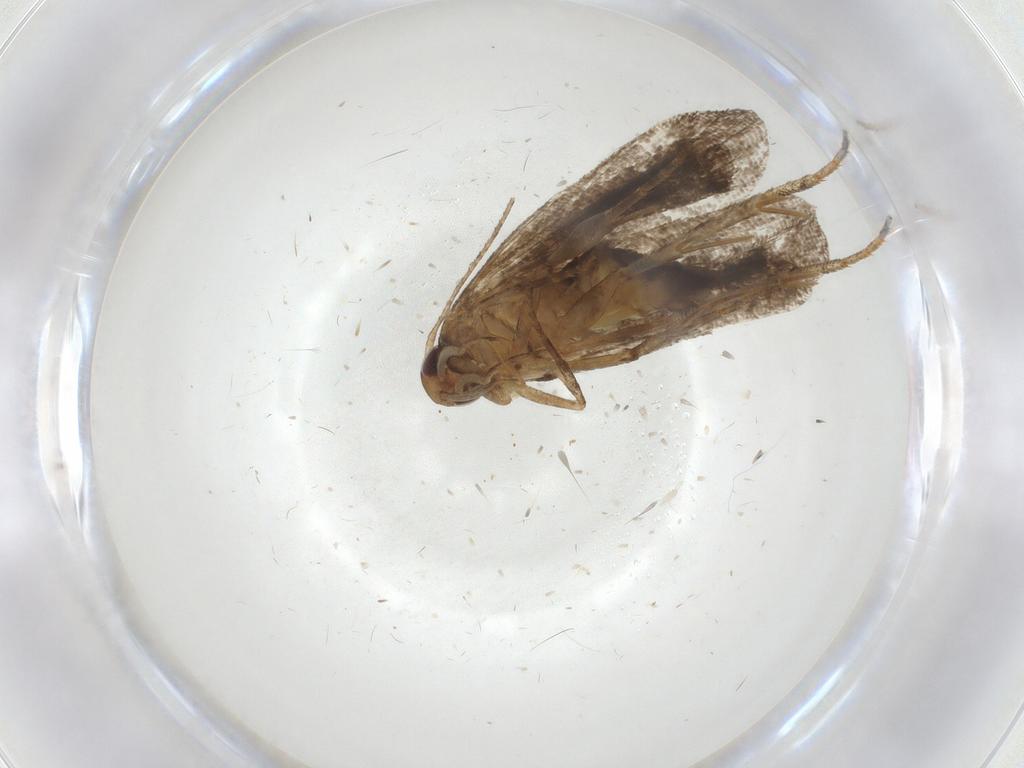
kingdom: Animalia
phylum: Arthropoda
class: Insecta
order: Lepidoptera
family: Gelechiidae
